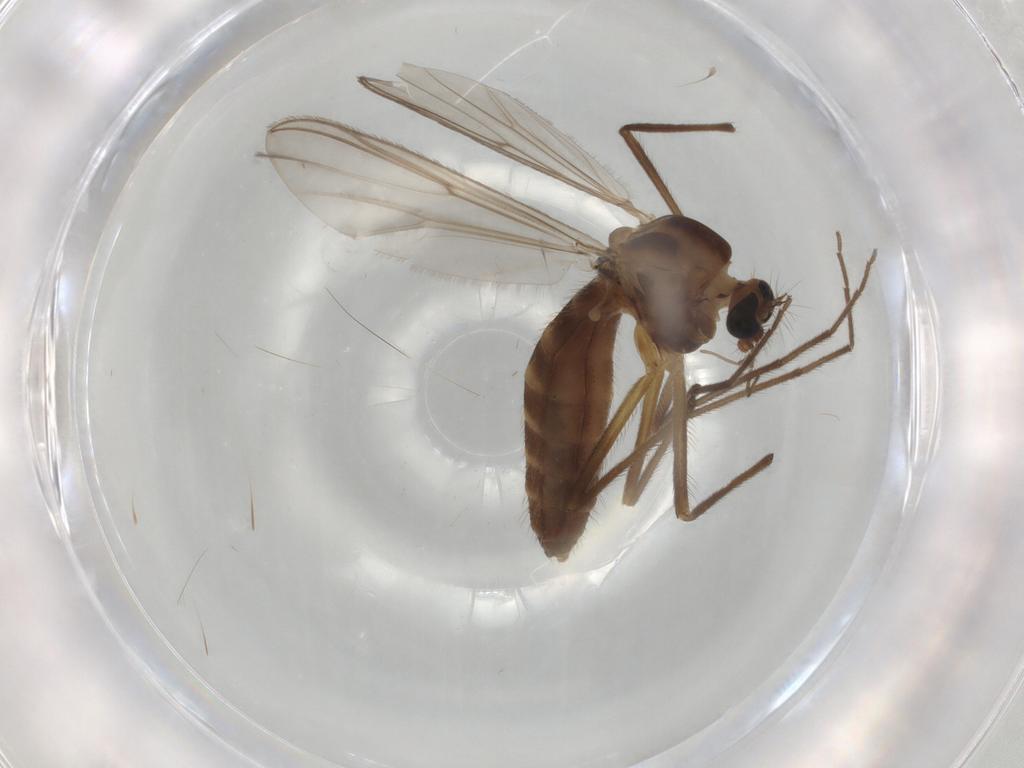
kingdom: Animalia
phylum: Arthropoda
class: Insecta
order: Diptera
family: Chironomidae
